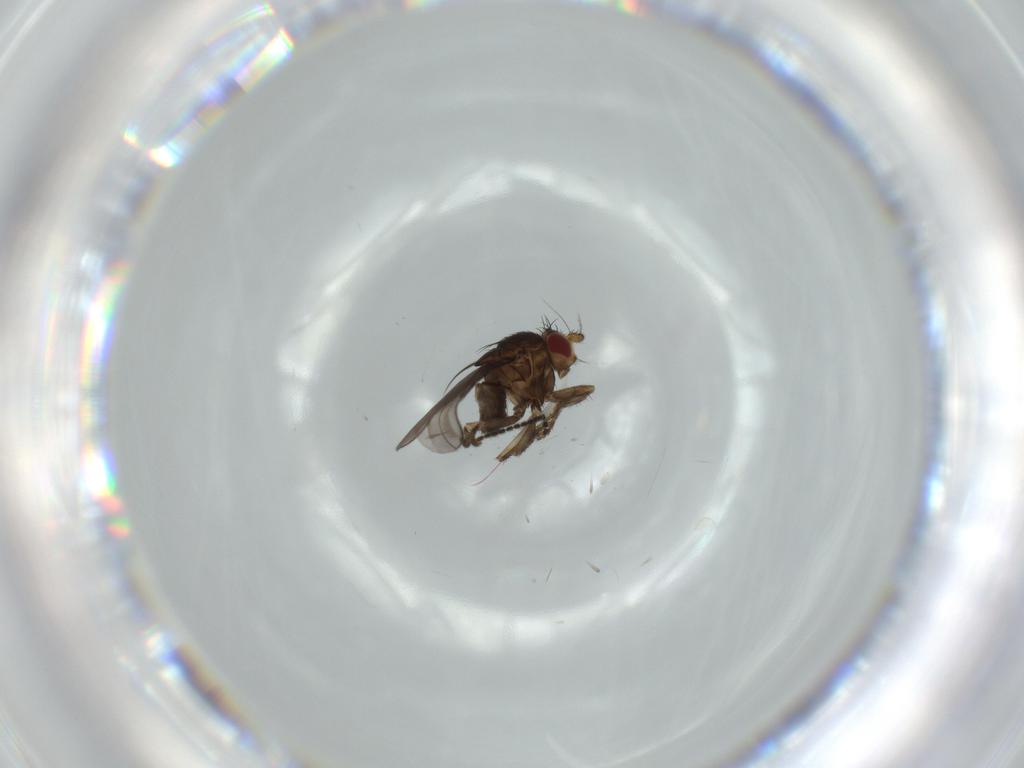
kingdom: Animalia
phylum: Arthropoda
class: Insecta
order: Diptera
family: Sciaridae
